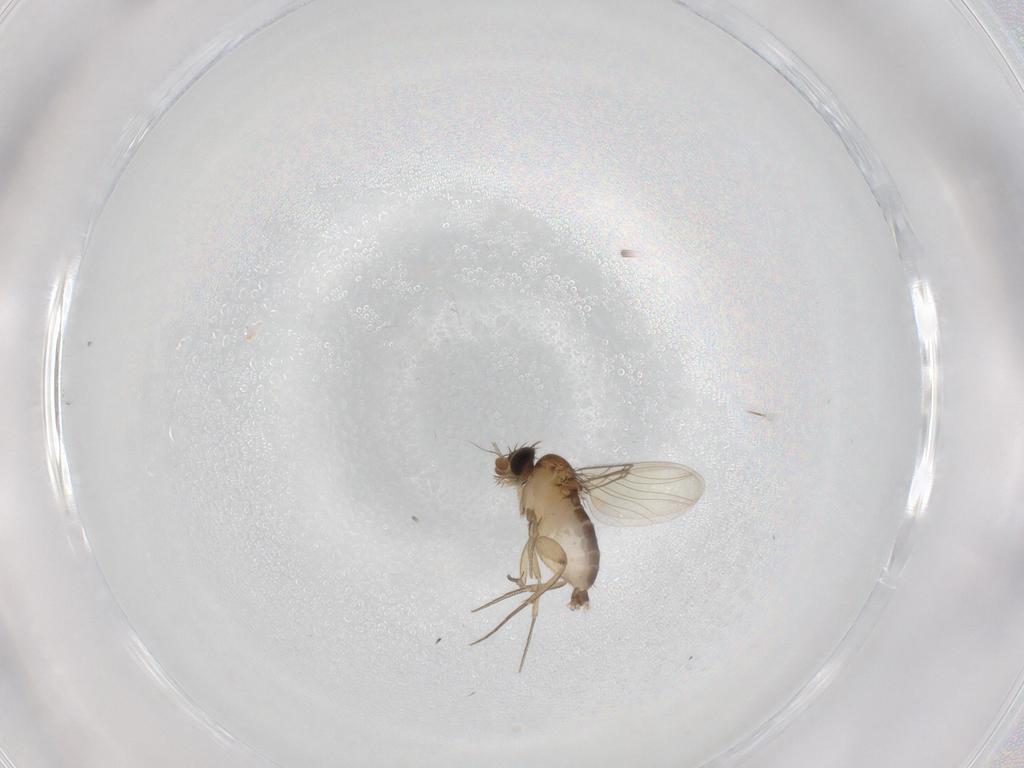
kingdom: Animalia
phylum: Arthropoda
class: Insecta
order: Diptera
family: Phoridae
